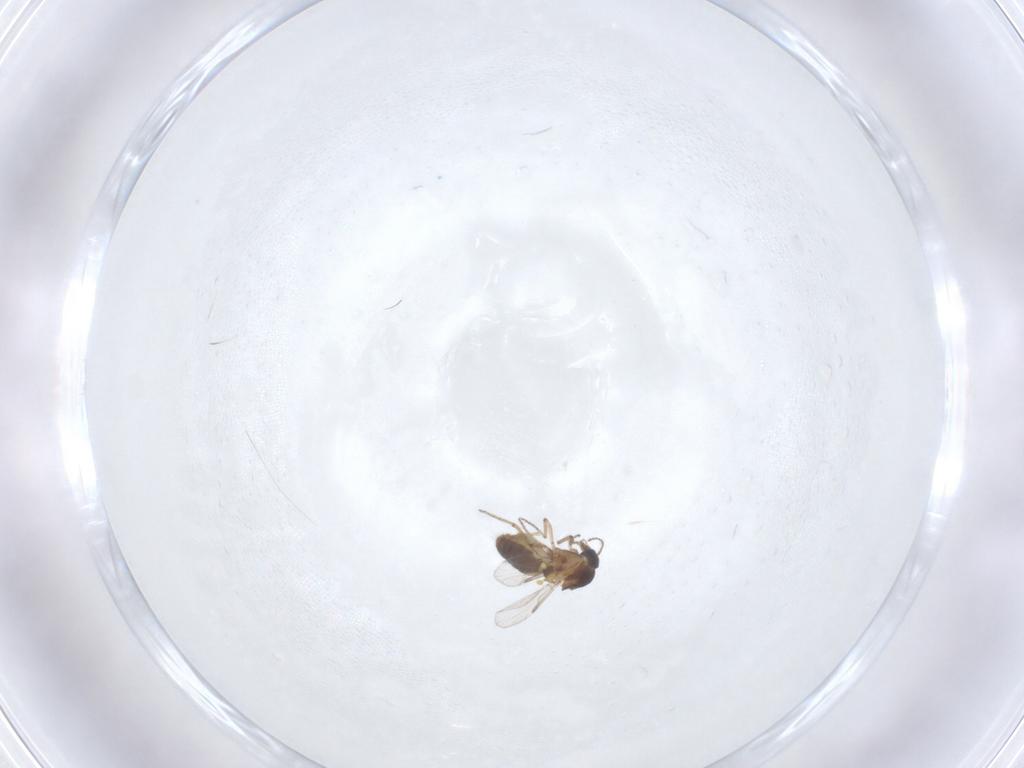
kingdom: Animalia
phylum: Arthropoda
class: Insecta
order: Diptera
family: Ceratopogonidae
